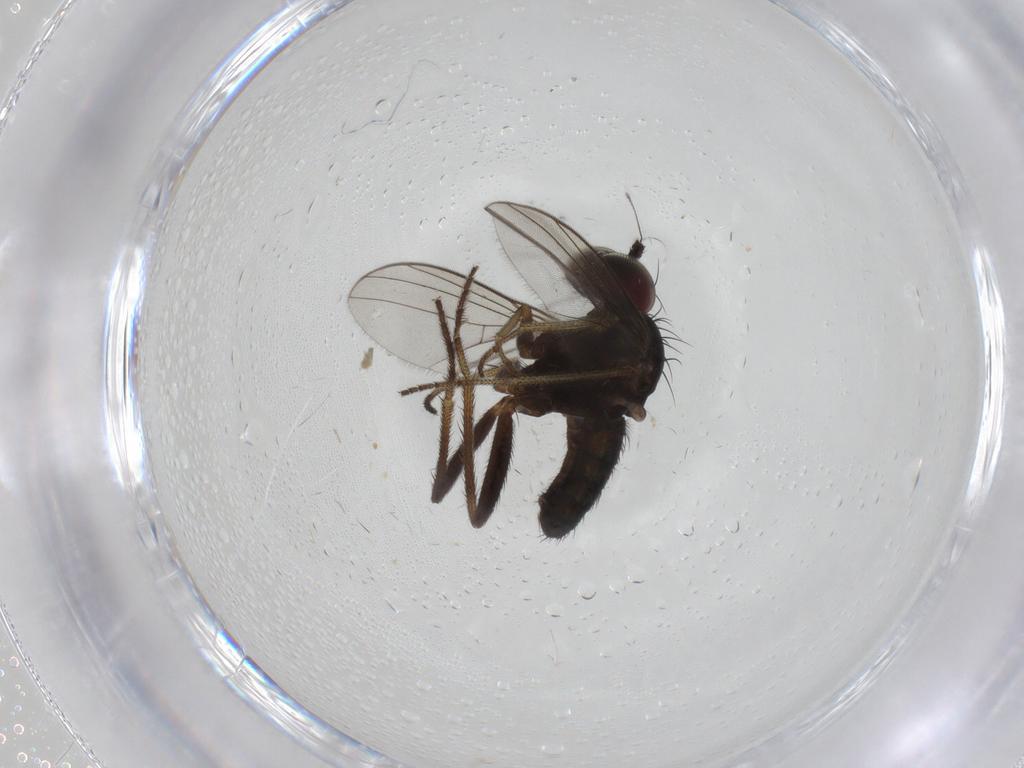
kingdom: Animalia
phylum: Arthropoda
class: Insecta
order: Diptera
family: Dolichopodidae
